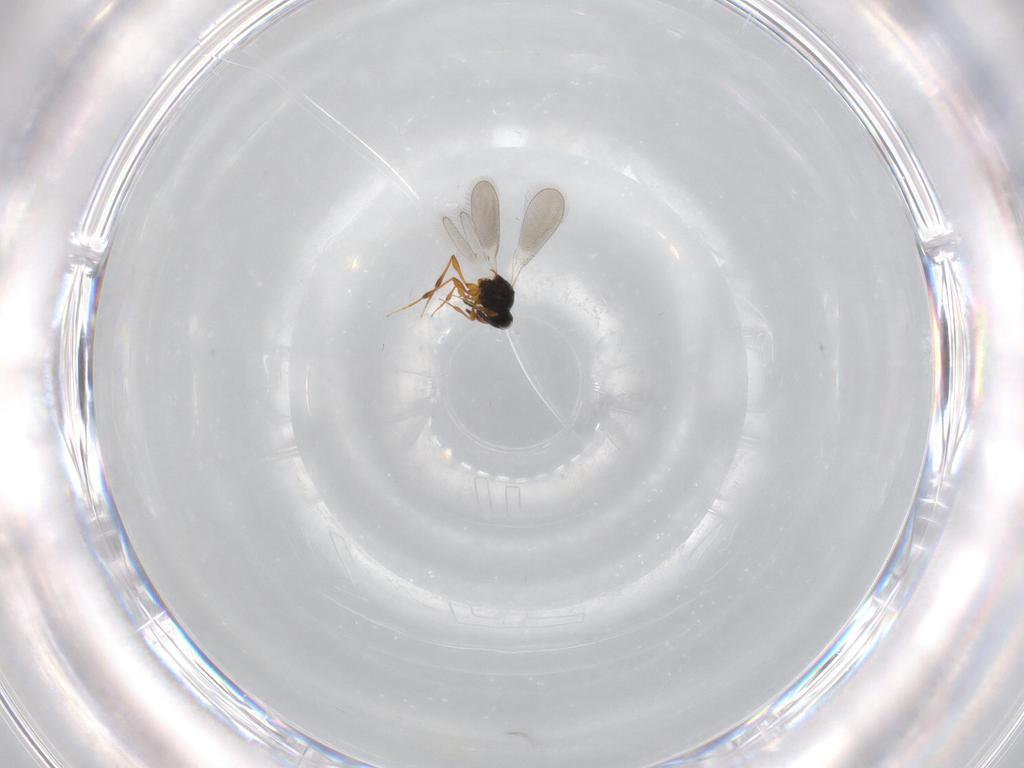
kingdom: Animalia
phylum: Arthropoda
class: Insecta
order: Hymenoptera
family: Platygastridae
